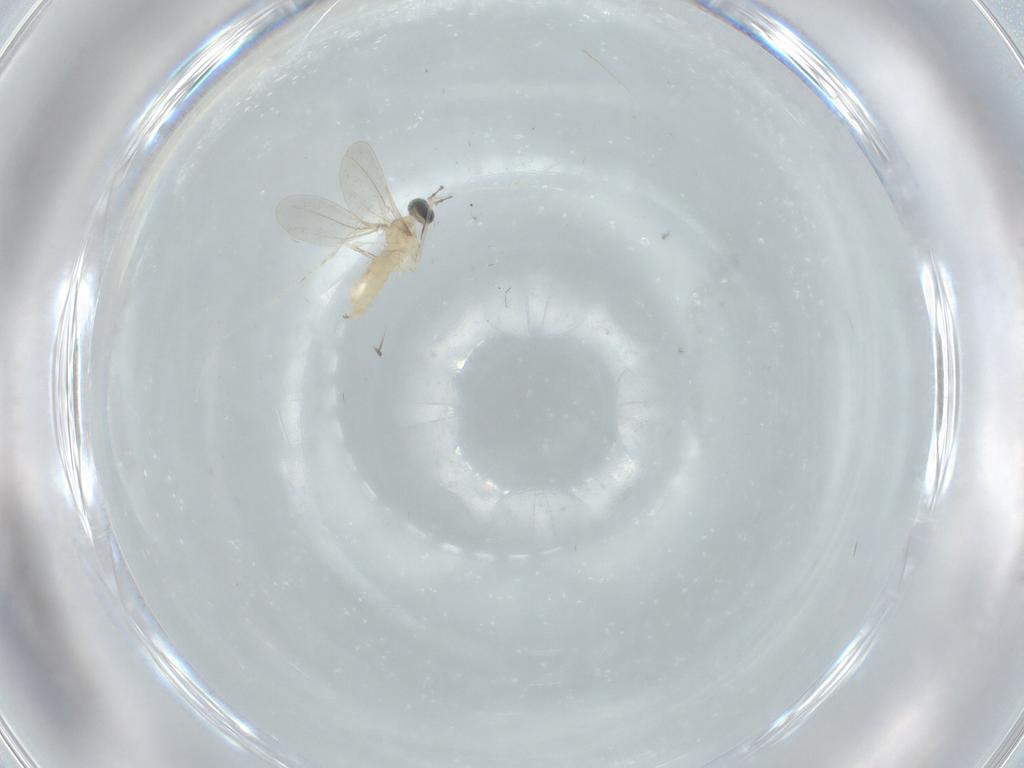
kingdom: Animalia
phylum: Arthropoda
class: Insecta
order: Diptera
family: Cecidomyiidae
